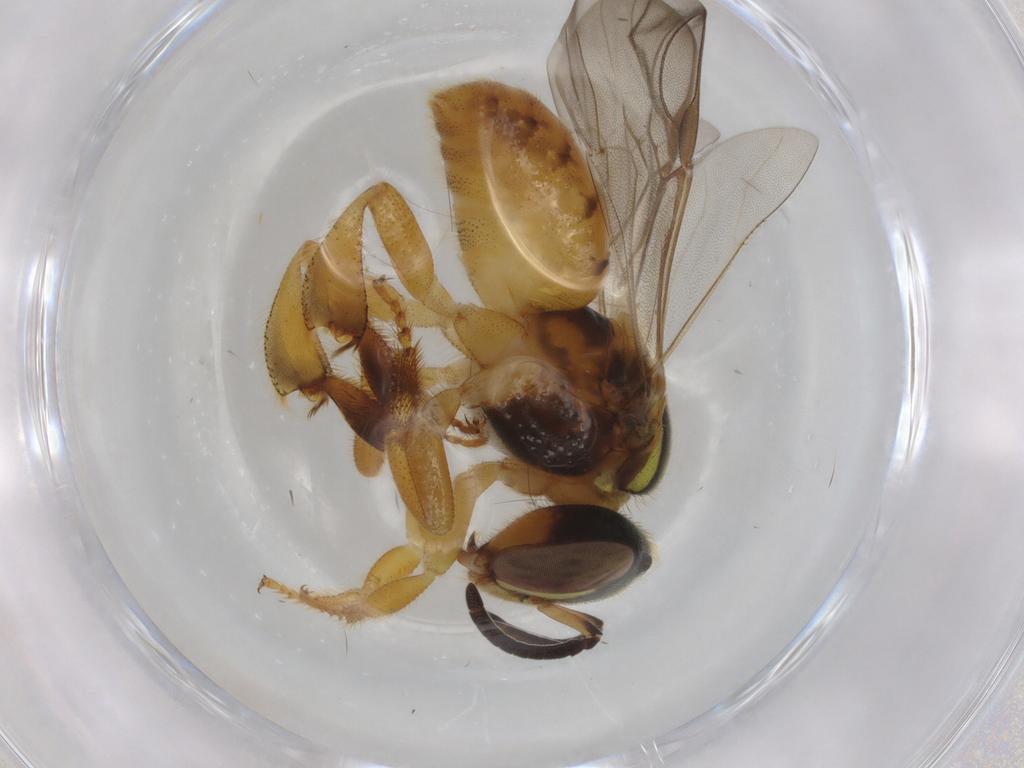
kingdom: Animalia
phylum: Arthropoda
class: Insecta
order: Hymenoptera
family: Apidae
